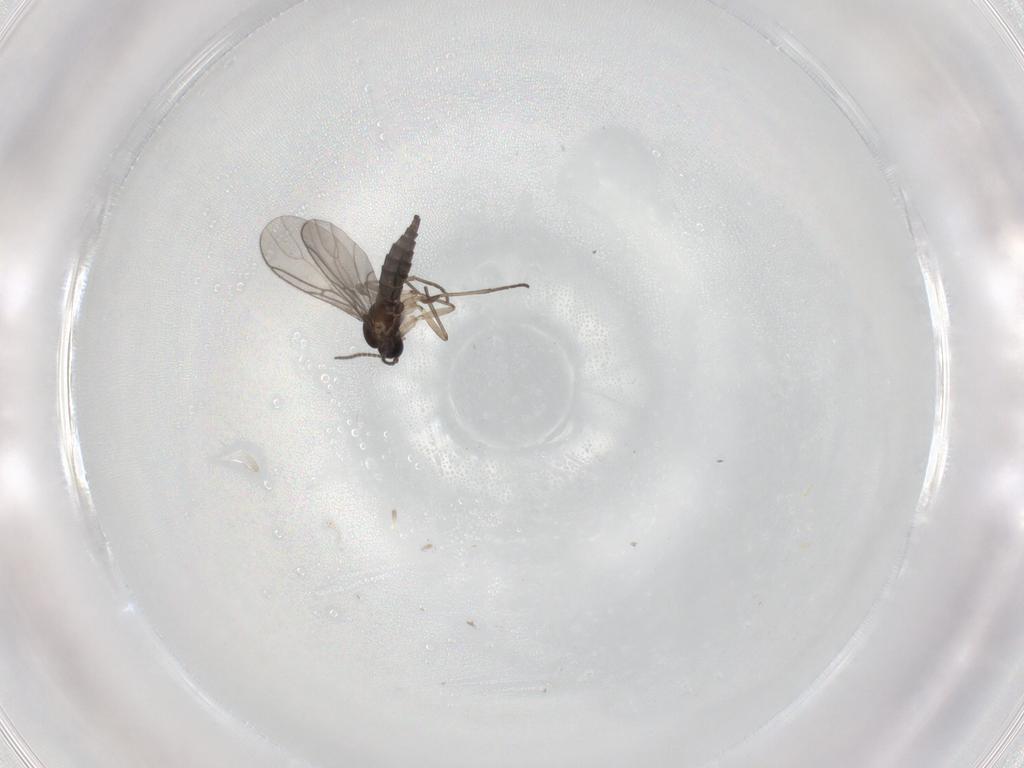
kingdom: Animalia
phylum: Arthropoda
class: Insecta
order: Diptera
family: Sciaridae
